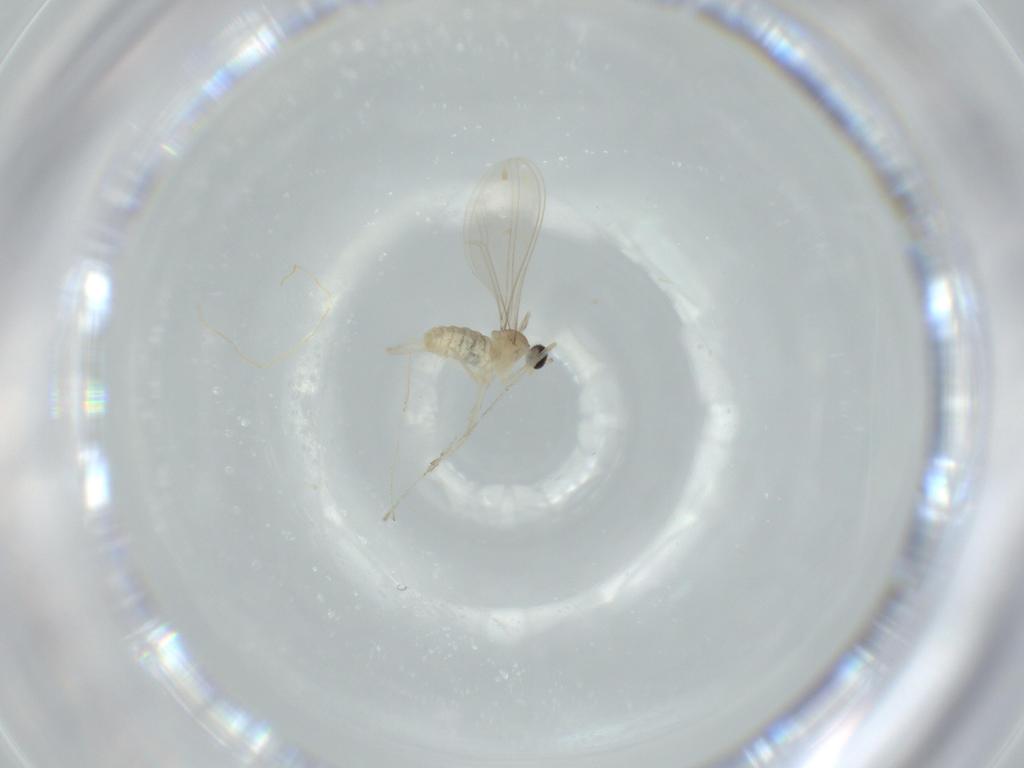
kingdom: Animalia
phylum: Arthropoda
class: Insecta
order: Diptera
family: Cecidomyiidae
